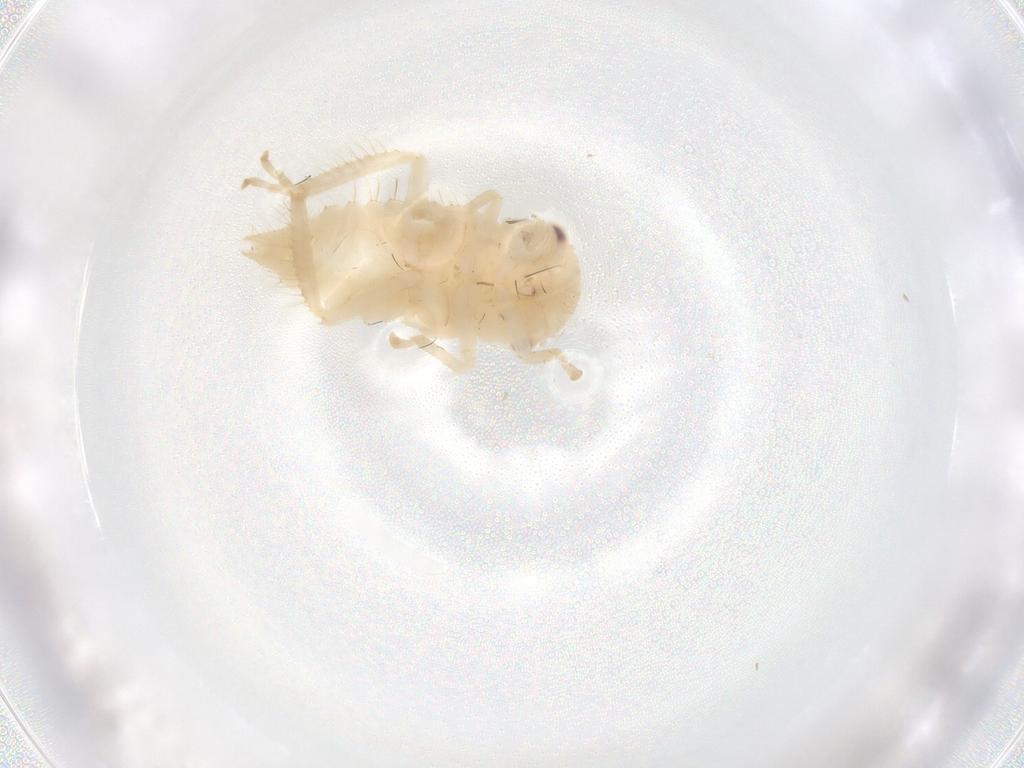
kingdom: Animalia
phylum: Arthropoda
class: Insecta
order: Hemiptera
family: Cicadellidae
